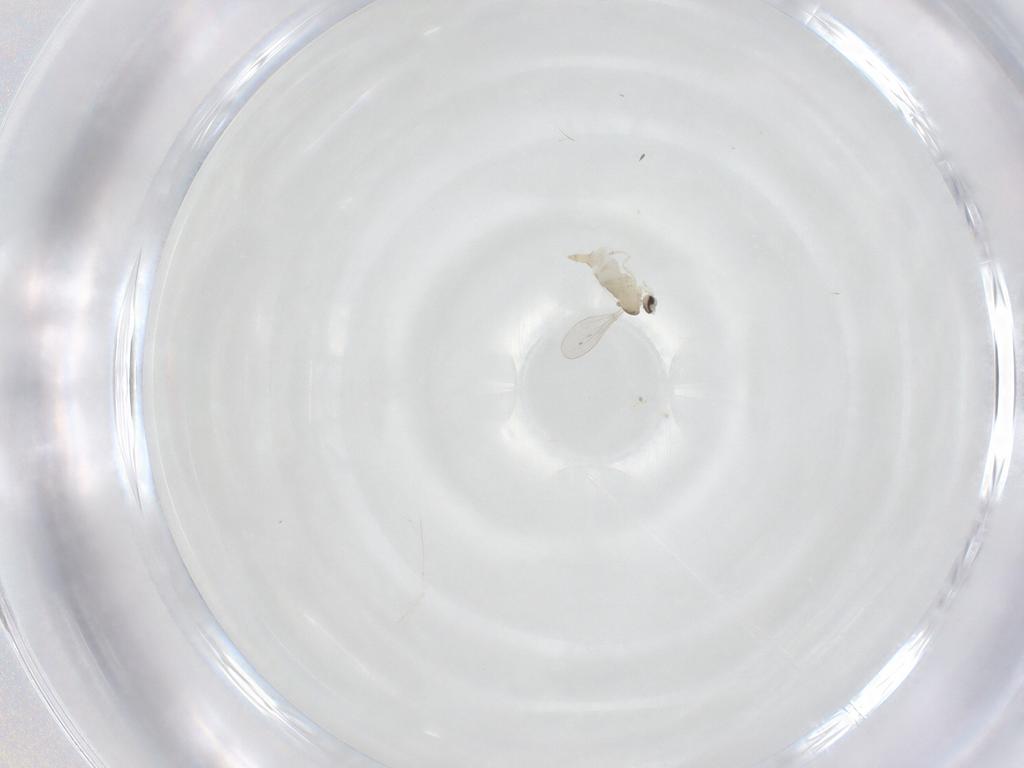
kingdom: Animalia
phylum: Arthropoda
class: Insecta
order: Diptera
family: Cecidomyiidae
